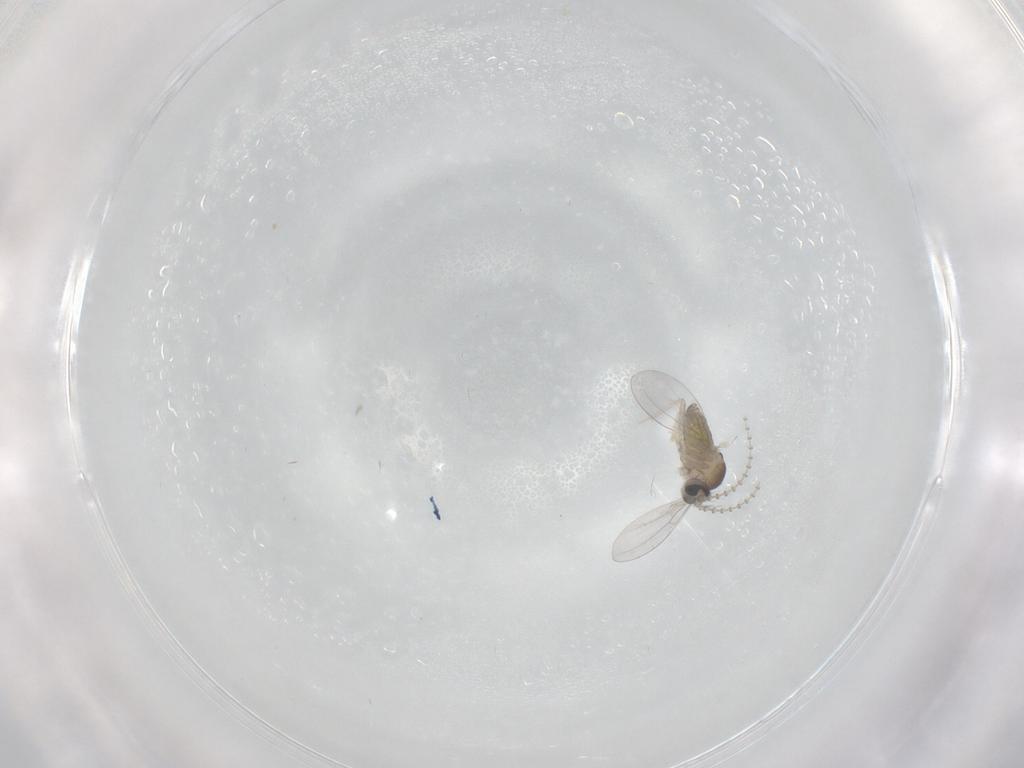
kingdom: Animalia
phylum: Arthropoda
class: Insecta
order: Diptera
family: Cecidomyiidae
